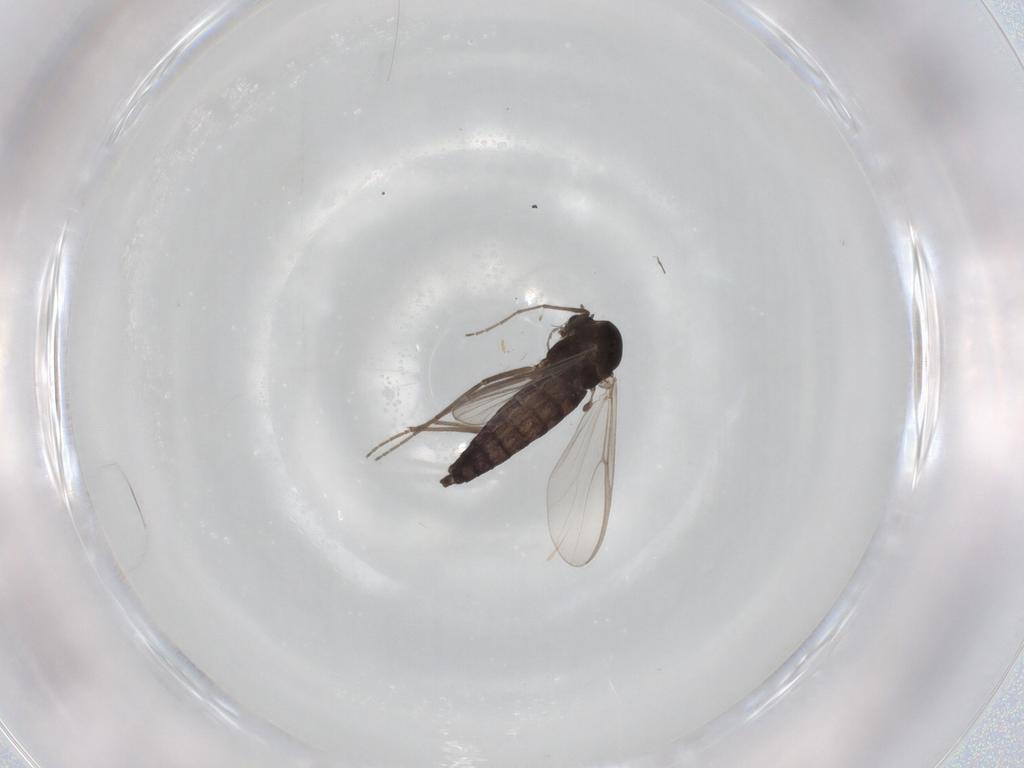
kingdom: Animalia
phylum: Arthropoda
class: Insecta
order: Diptera
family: Chironomidae
